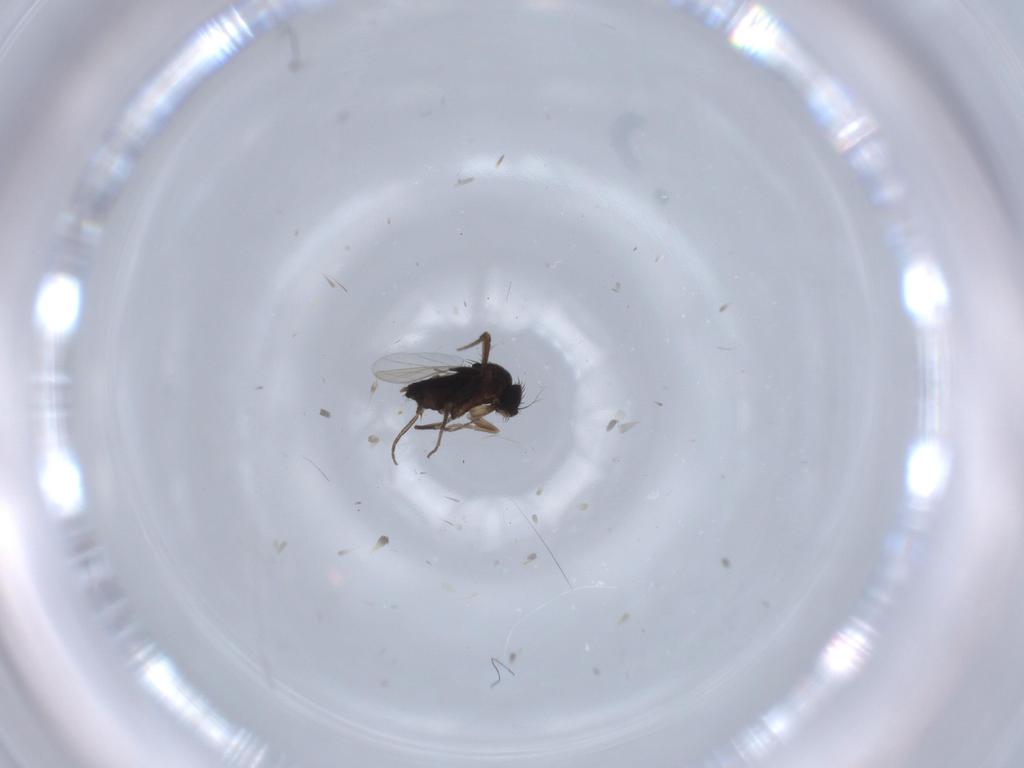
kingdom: Animalia
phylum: Arthropoda
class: Insecta
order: Diptera
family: Phoridae
